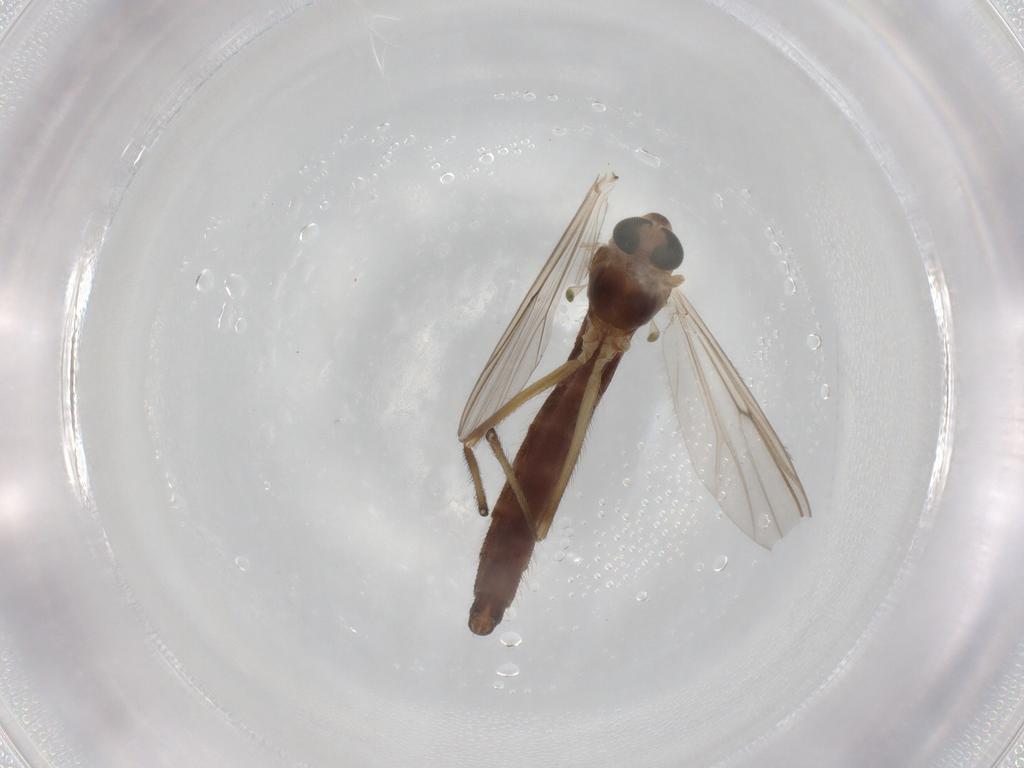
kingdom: Animalia
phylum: Arthropoda
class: Insecta
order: Diptera
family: Chironomidae
